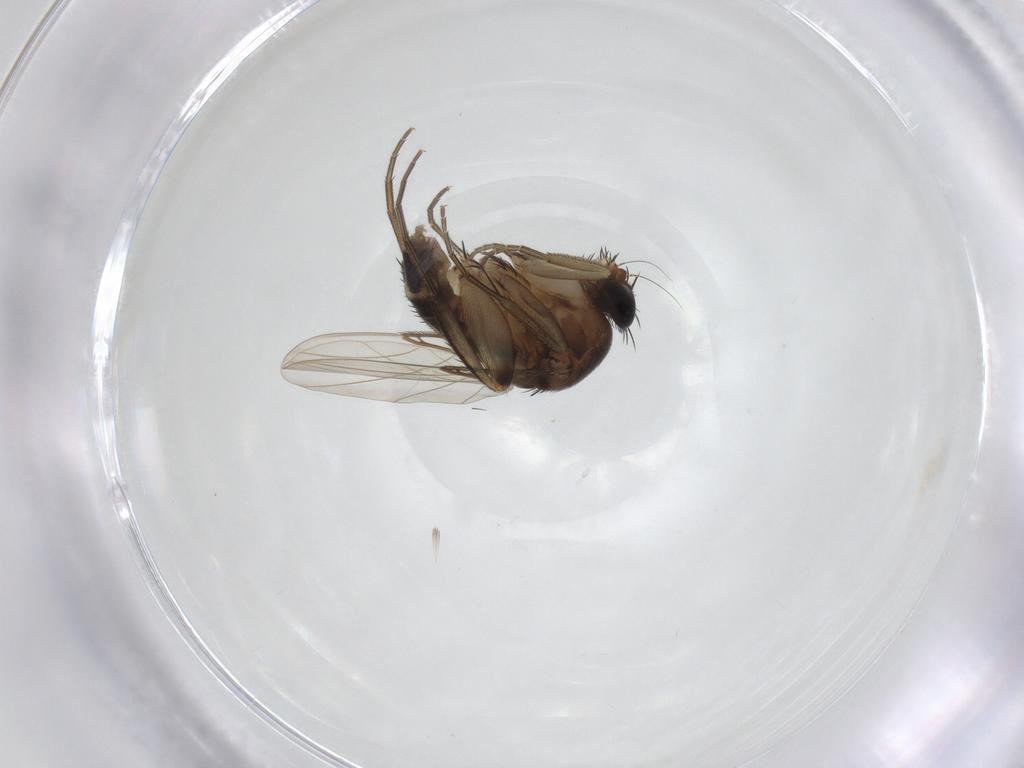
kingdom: Animalia
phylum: Arthropoda
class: Insecta
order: Diptera
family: Phoridae
